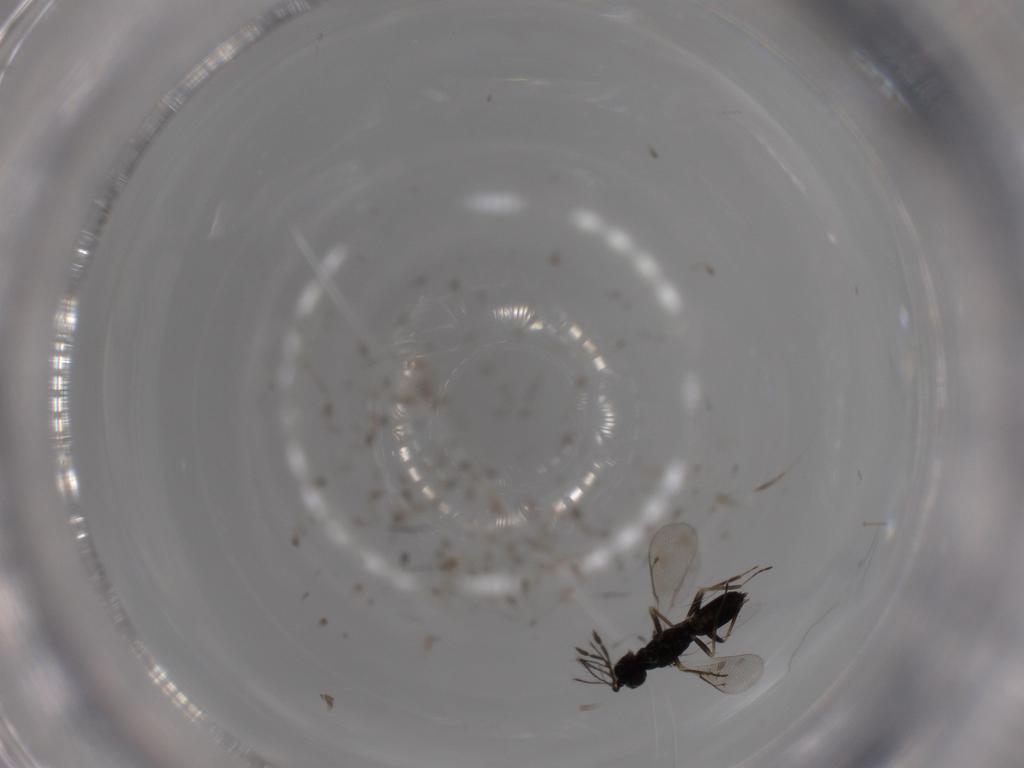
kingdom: Animalia
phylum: Arthropoda
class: Insecta
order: Hymenoptera
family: Eulophidae
